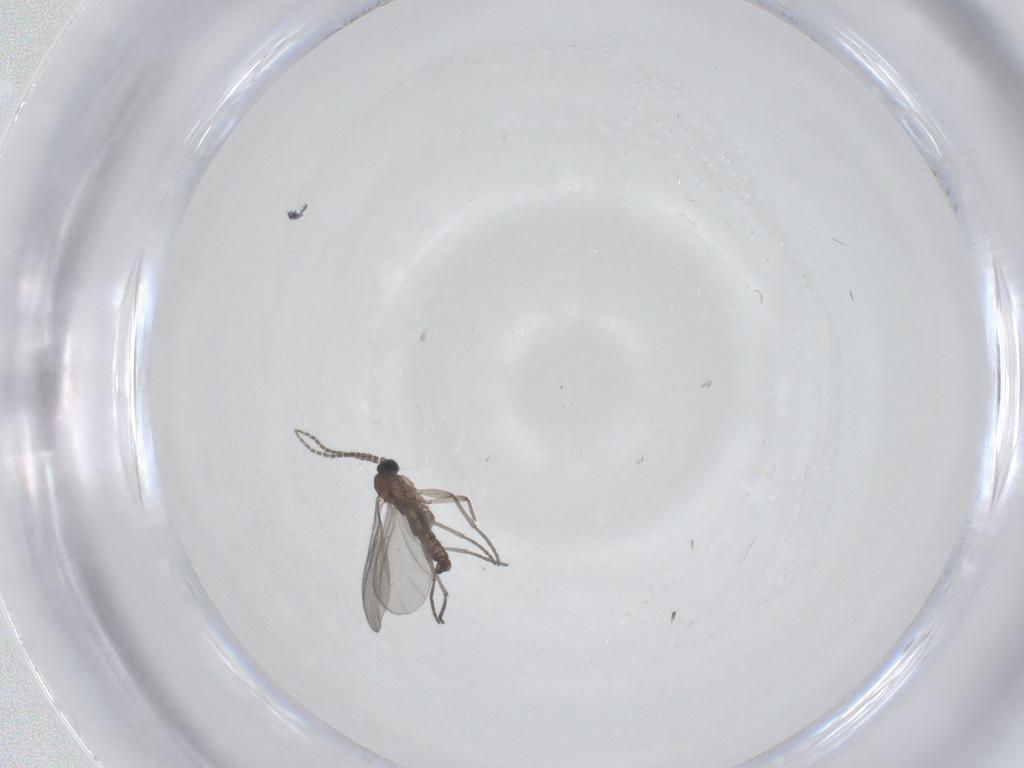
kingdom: Animalia
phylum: Arthropoda
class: Insecta
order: Diptera
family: Sciaridae
